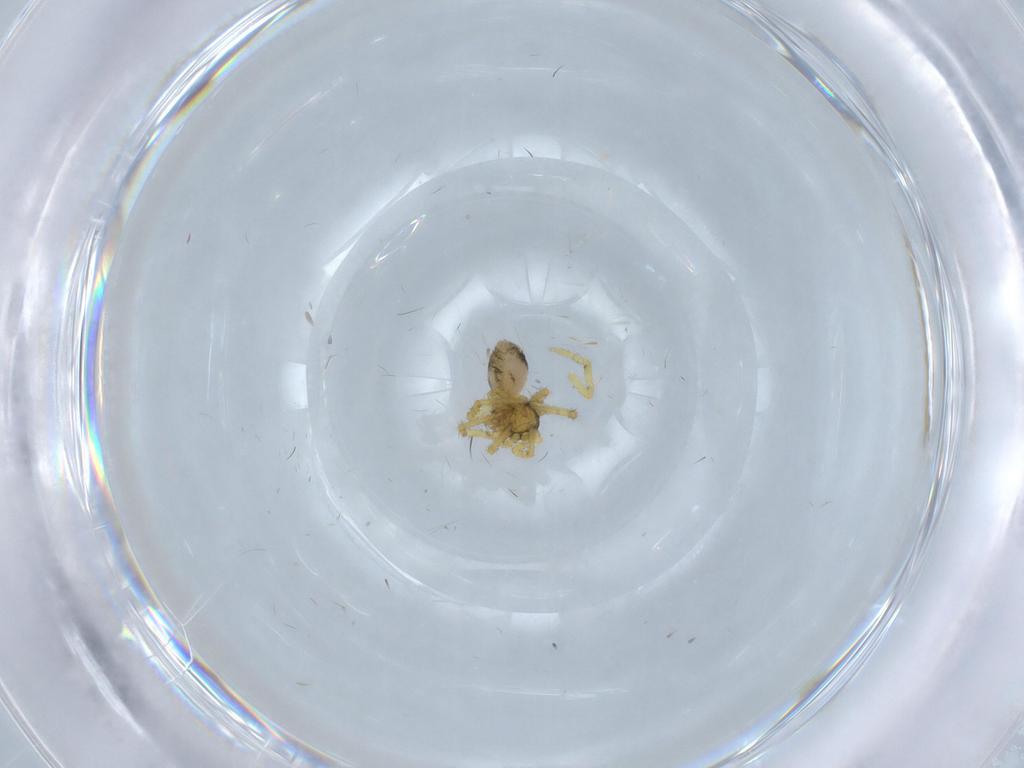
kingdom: Animalia
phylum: Arthropoda
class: Arachnida
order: Araneae
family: Theridiidae
